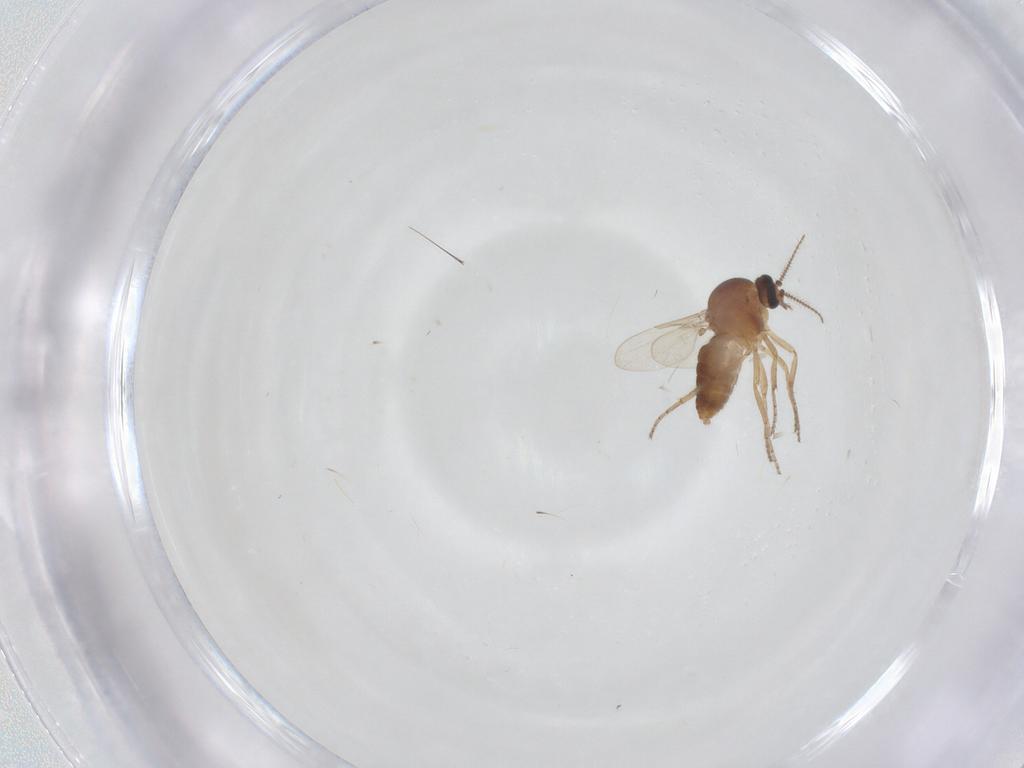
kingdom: Animalia
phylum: Arthropoda
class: Insecta
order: Diptera
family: Ceratopogonidae
